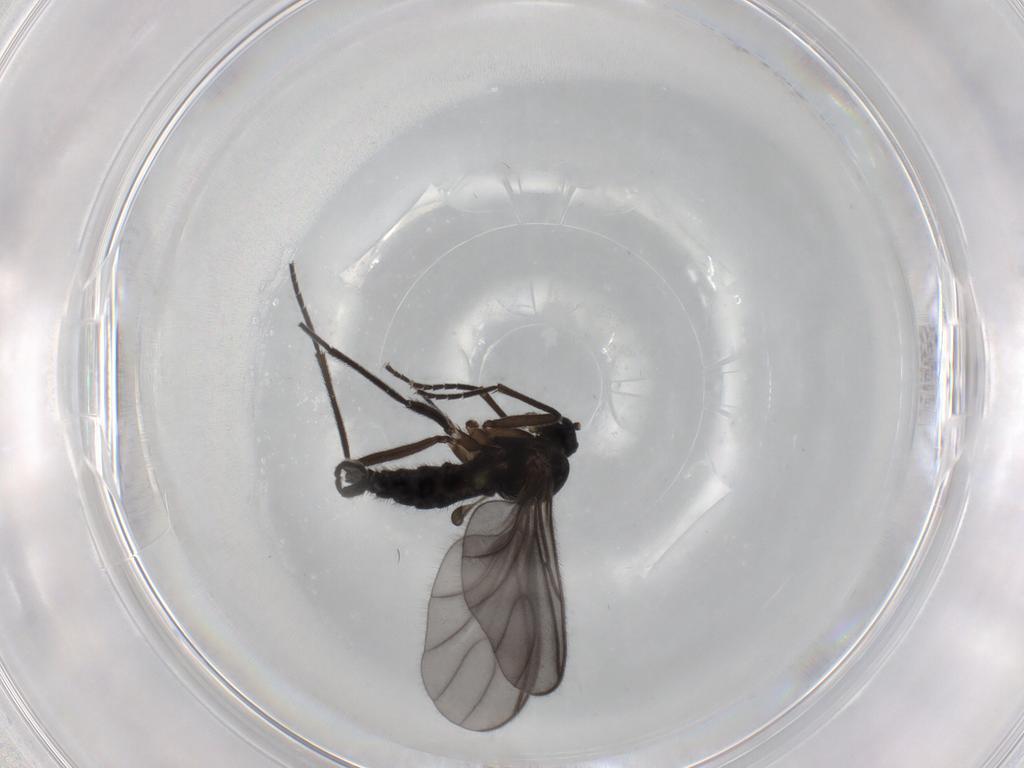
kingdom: Animalia
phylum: Arthropoda
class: Insecta
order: Diptera
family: Sciaridae
